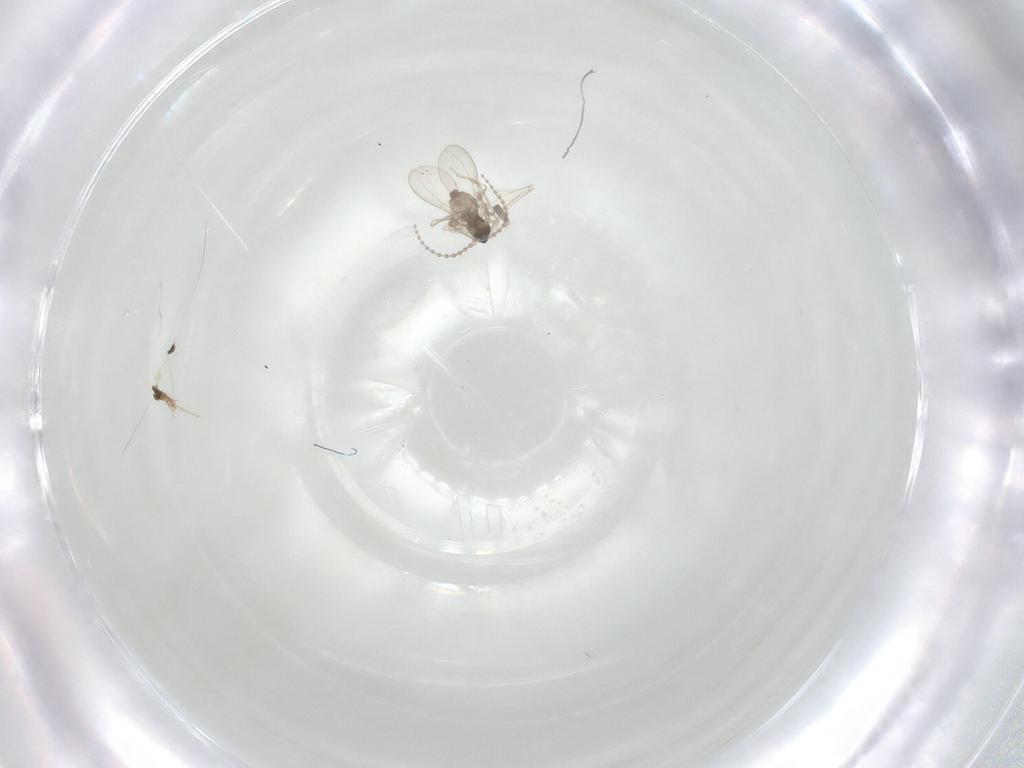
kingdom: Animalia
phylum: Arthropoda
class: Insecta
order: Diptera
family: Cecidomyiidae
